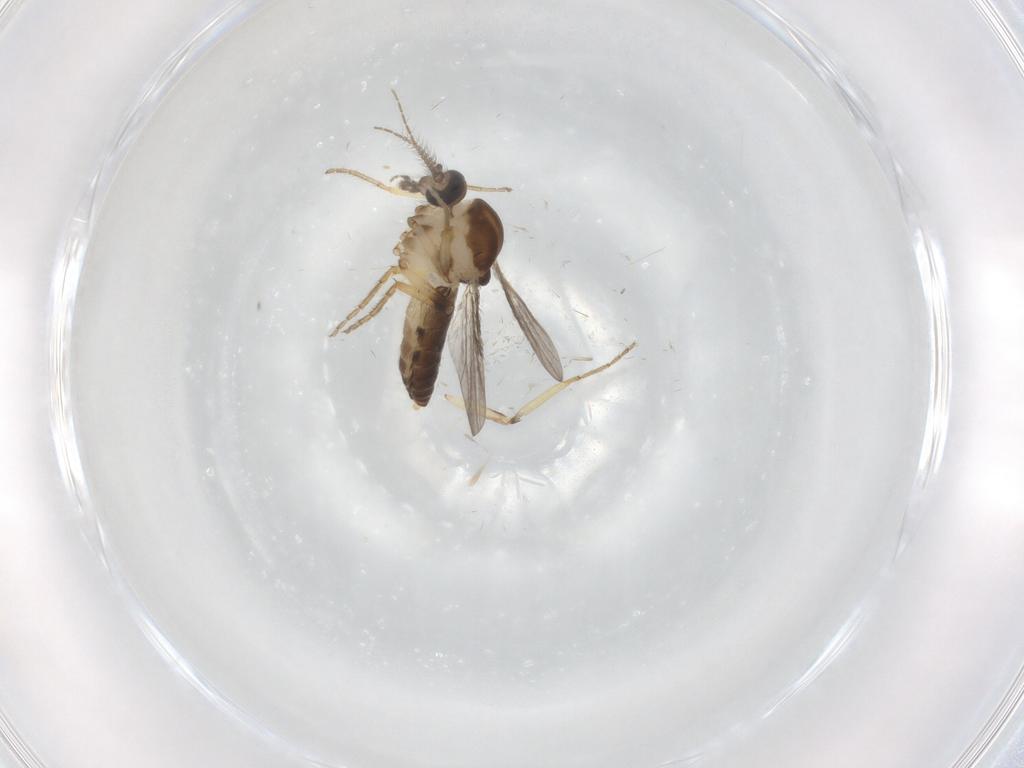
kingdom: Animalia
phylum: Arthropoda
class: Insecta
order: Diptera
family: Ceratopogonidae
